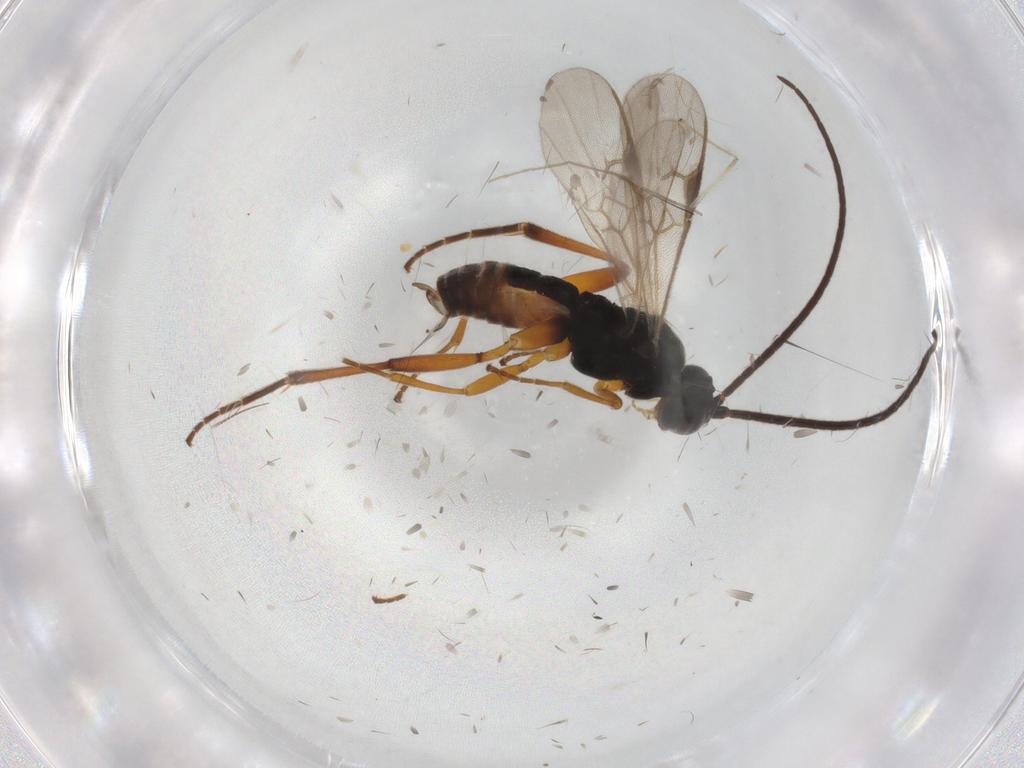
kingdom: Animalia
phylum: Arthropoda
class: Insecta
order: Hymenoptera
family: Braconidae
